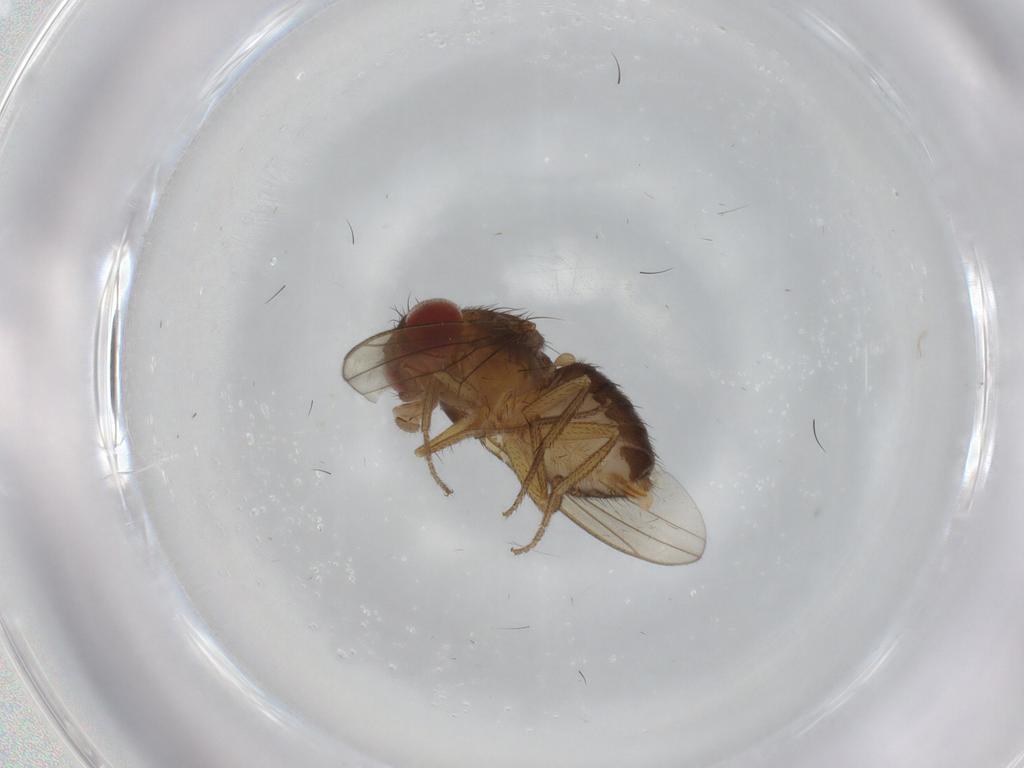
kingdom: Animalia
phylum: Arthropoda
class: Insecta
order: Diptera
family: Drosophilidae
